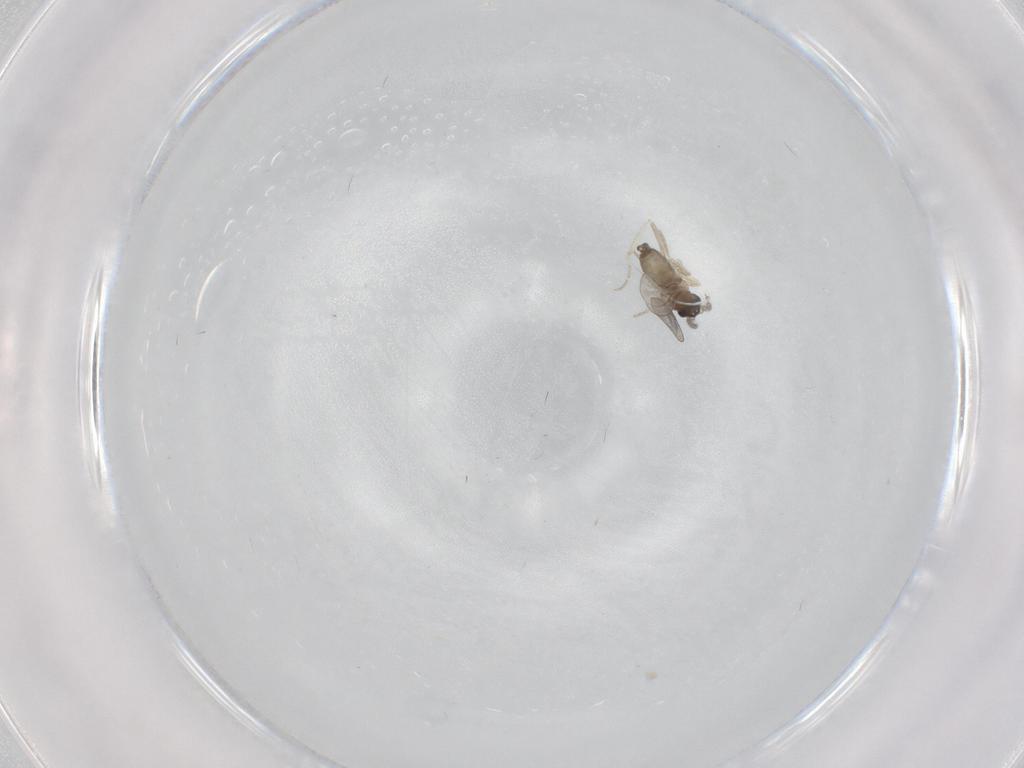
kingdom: Animalia
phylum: Arthropoda
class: Insecta
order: Diptera
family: Cecidomyiidae
